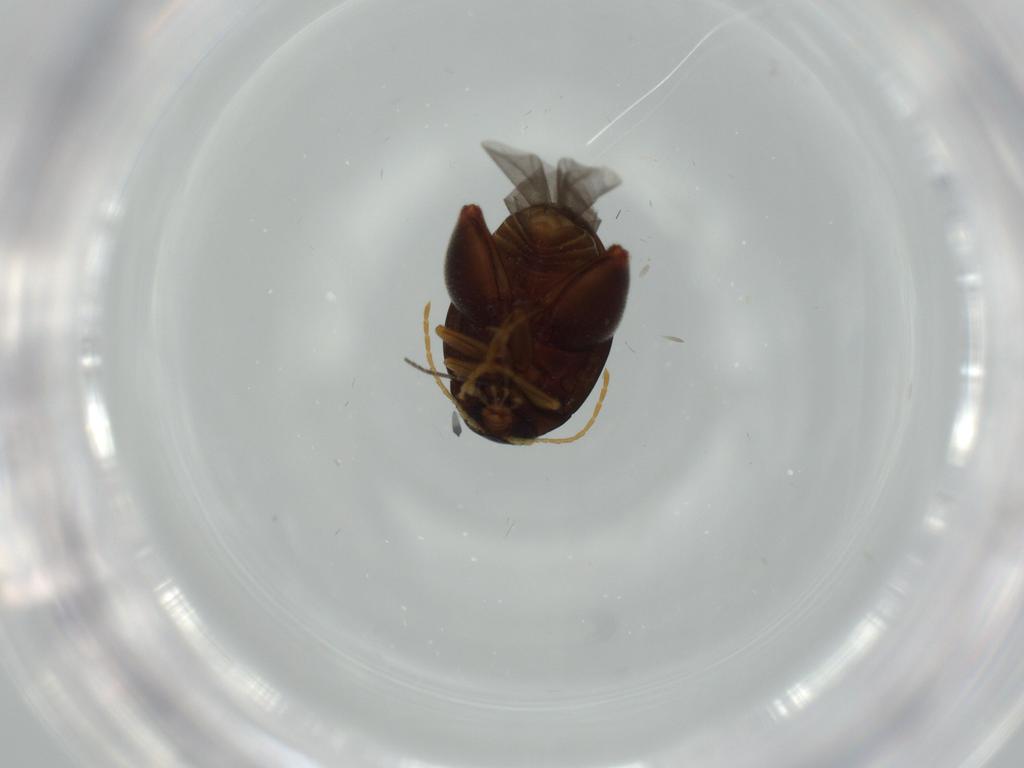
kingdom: Animalia
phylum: Arthropoda
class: Insecta
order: Coleoptera
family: Chrysomelidae
